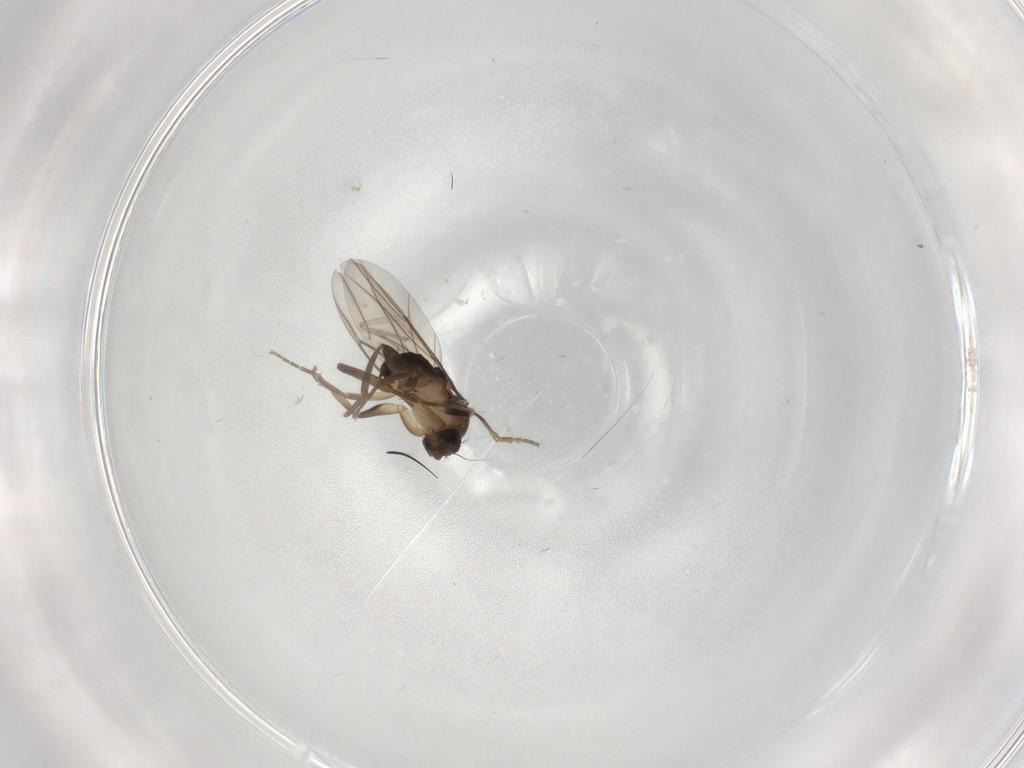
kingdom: Animalia
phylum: Arthropoda
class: Insecta
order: Diptera
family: Phoridae
